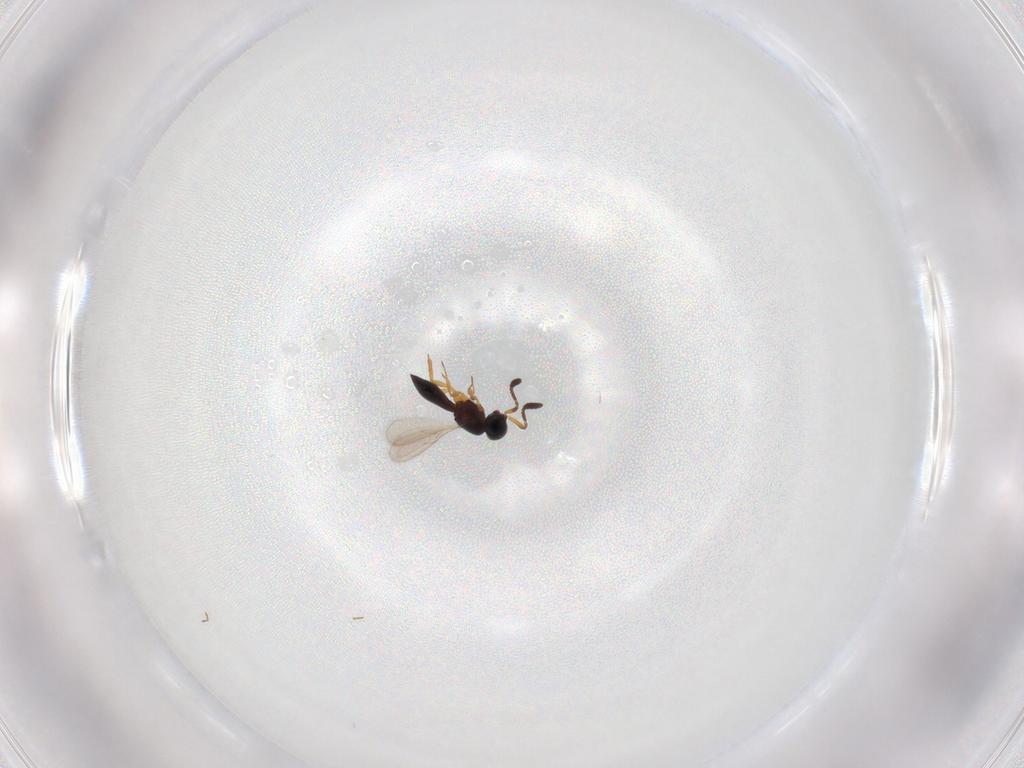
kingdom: Animalia
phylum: Arthropoda
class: Insecta
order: Hymenoptera
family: Scelionidae
